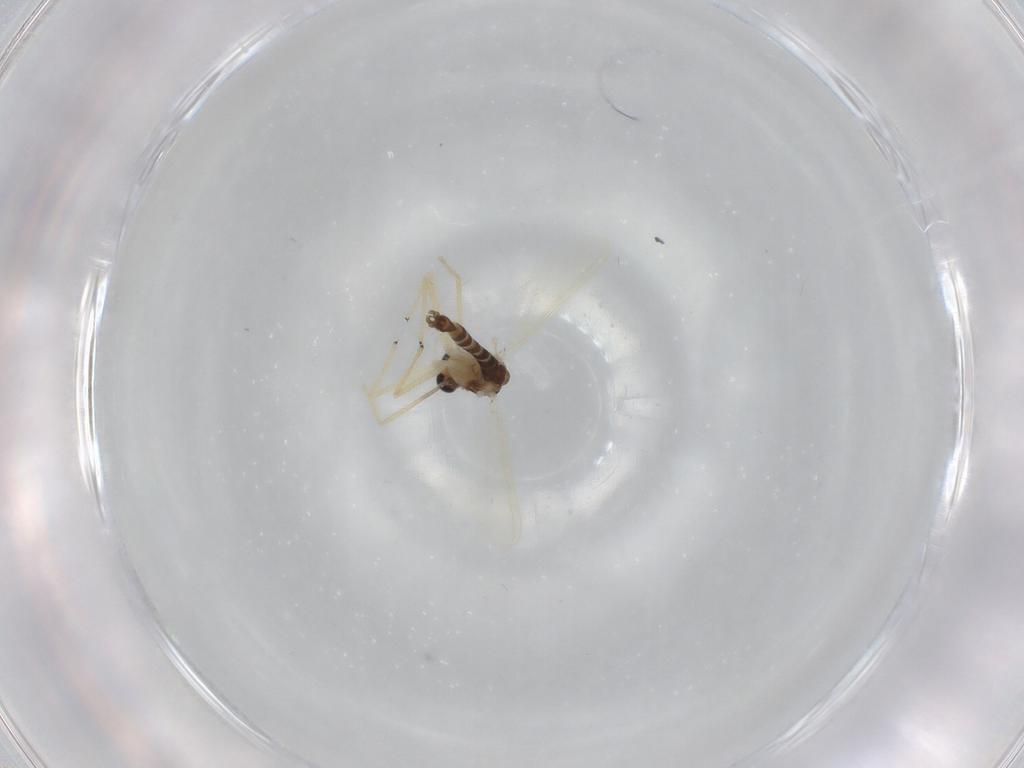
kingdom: Animalia
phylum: Arthropoda
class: Insecta
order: Diptera
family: Chironomidae
